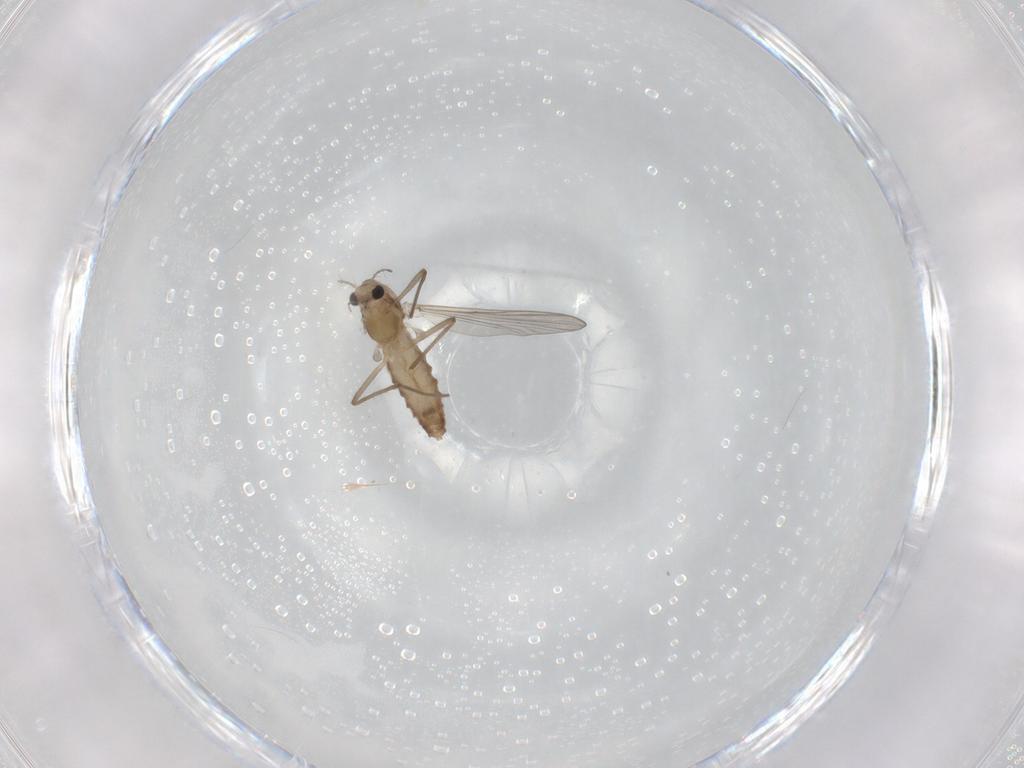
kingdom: Animalia
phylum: Arthropoda
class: Insecta
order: Diptera
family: Chironomidae
